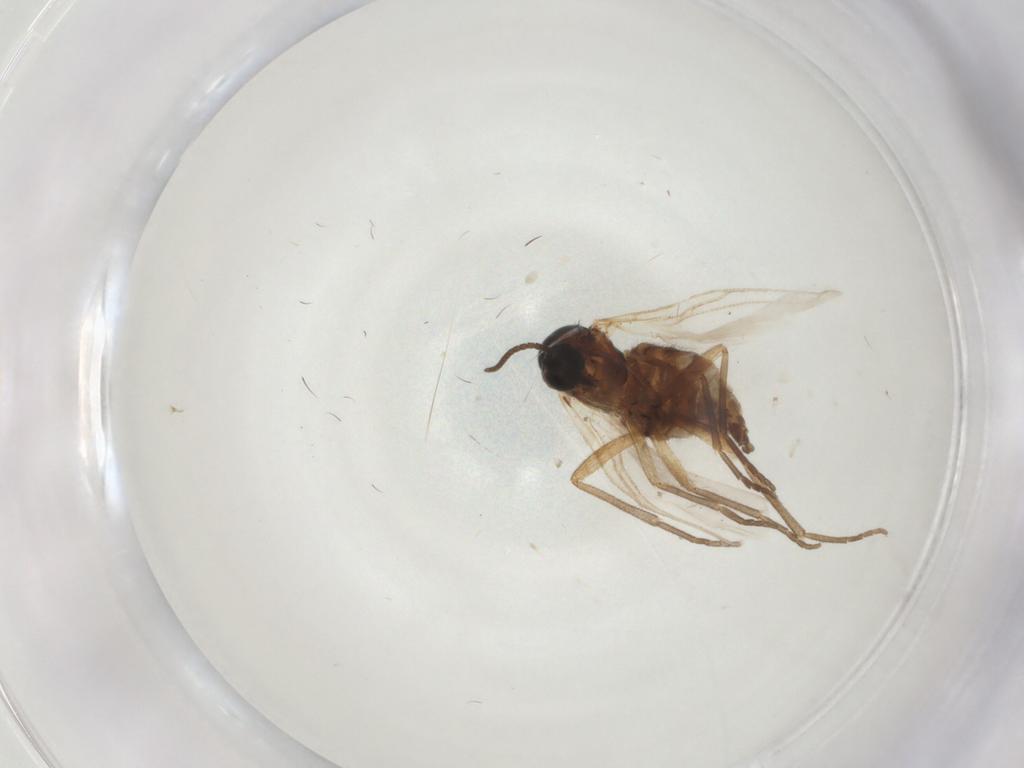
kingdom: Animalia
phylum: Arthropoda
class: Insecta
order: Diptera
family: Sciaridae
